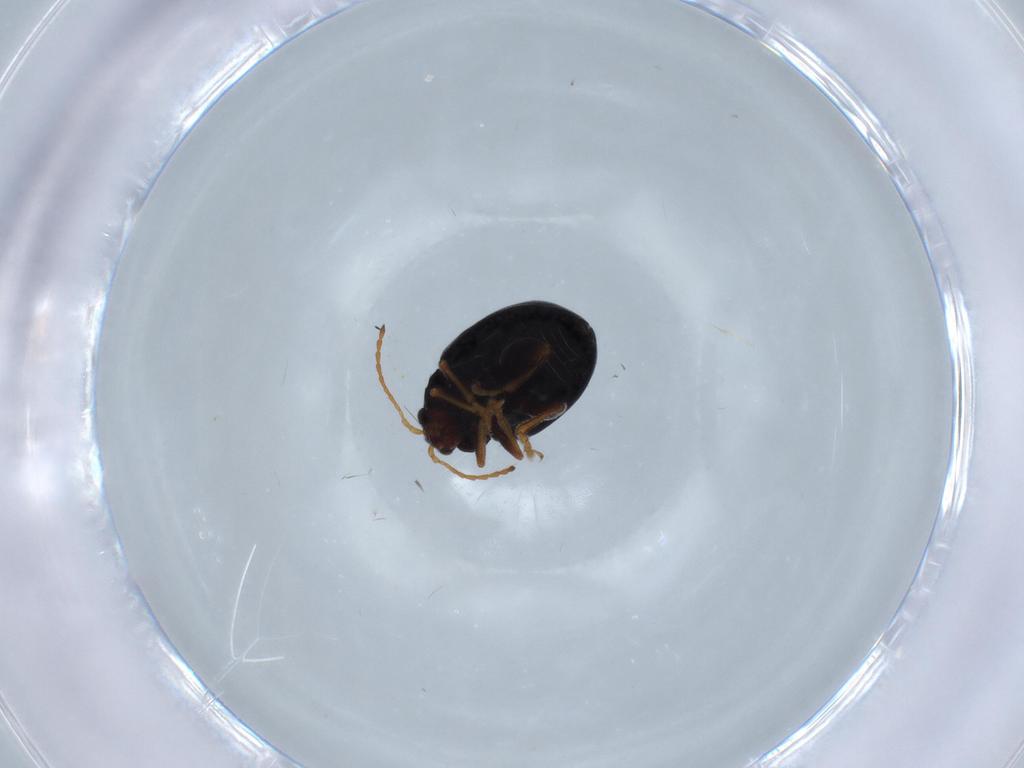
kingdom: Animalia
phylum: Arthropoda
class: Insecta
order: Coleoptera
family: Chrysomelidae
